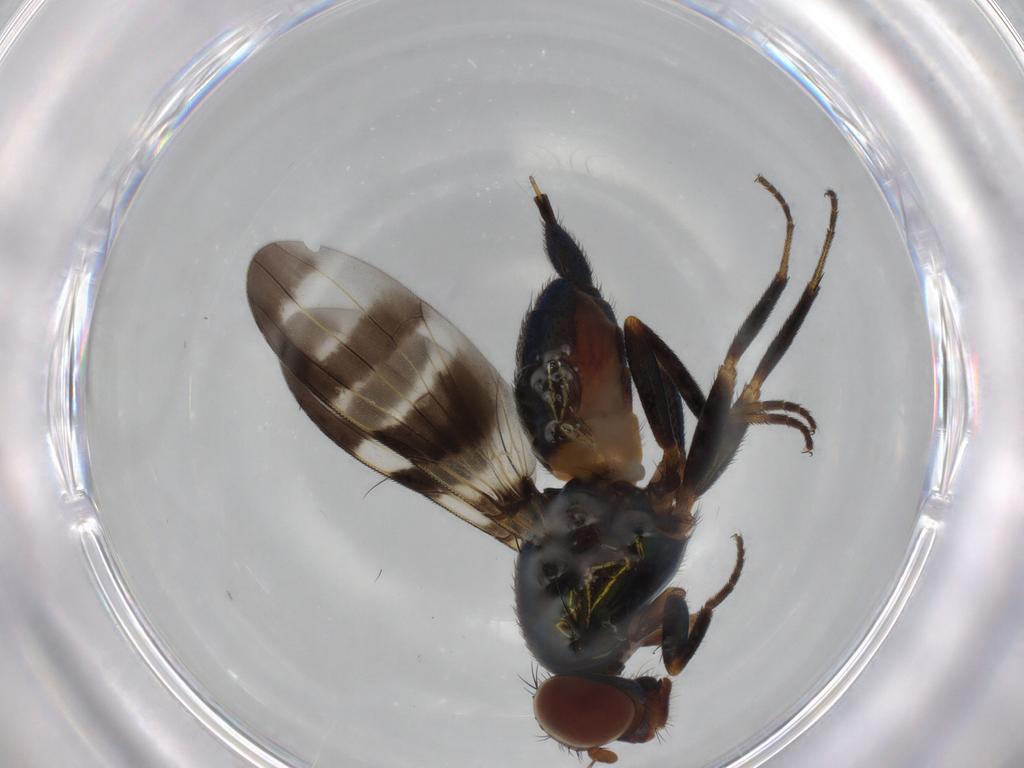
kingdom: Animalia
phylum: Arthropoda
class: Insecta
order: Diptera
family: Ulidiidae
